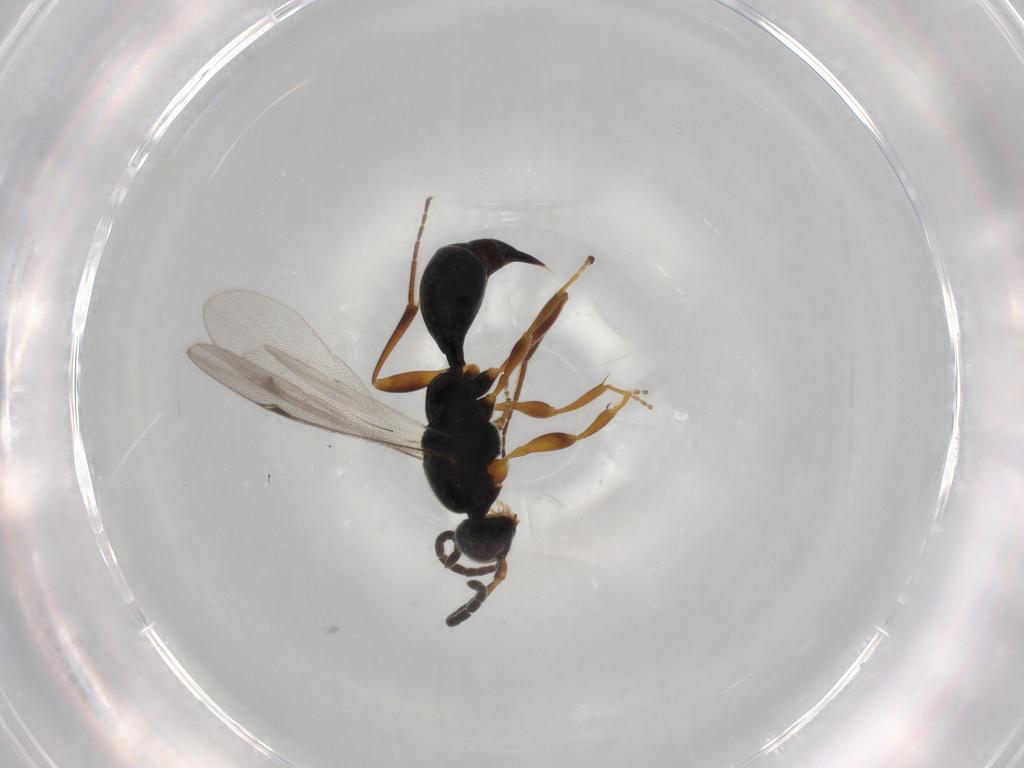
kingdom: Animalia
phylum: Arthropoda
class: Insecta
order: Hymenoptera
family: Proctotrupidae
